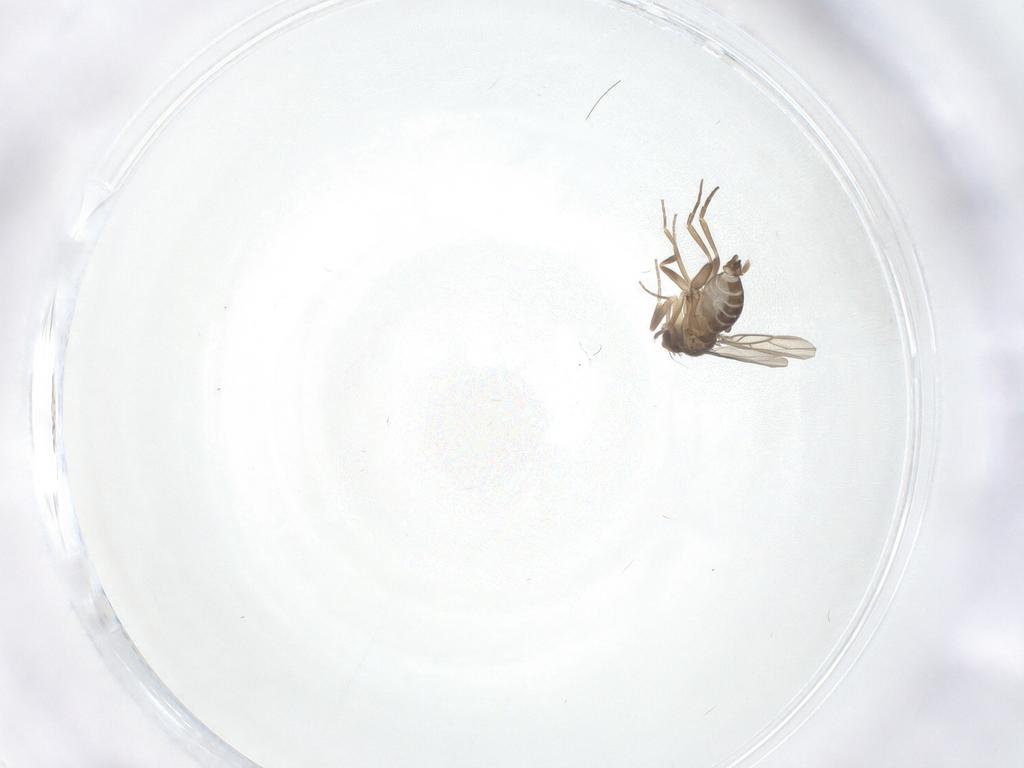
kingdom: Animalia
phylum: Arthropoda
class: Insecta
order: Diptera
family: Phoridae
